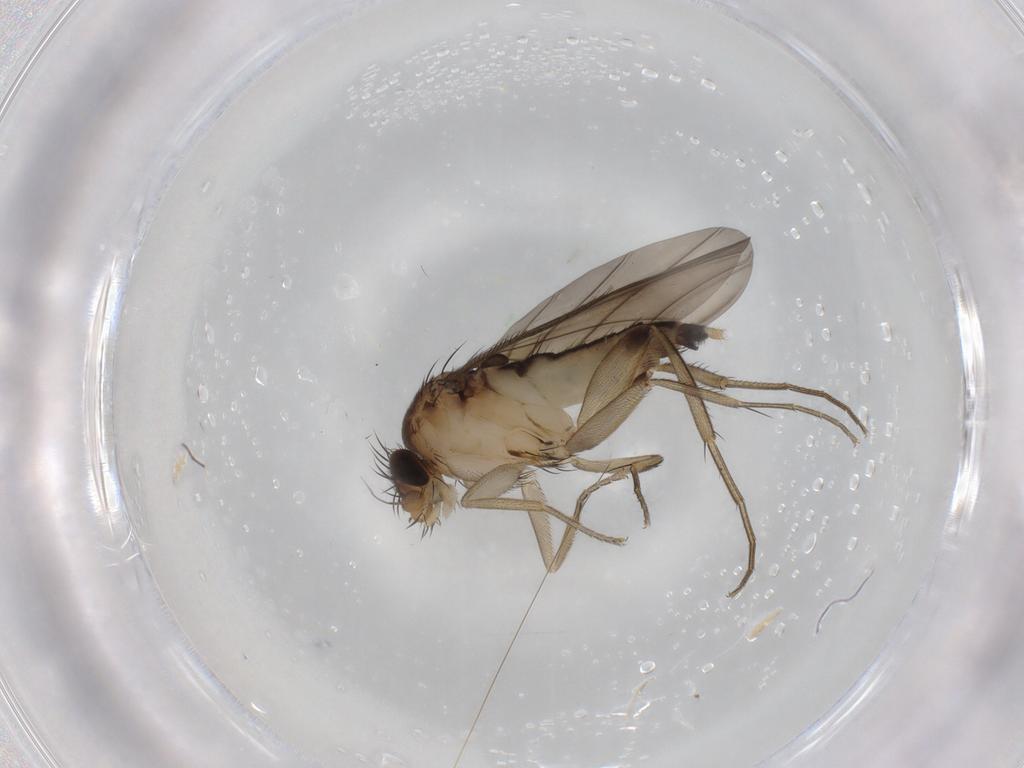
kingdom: Animalia
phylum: Arthropoda
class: Insecta
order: Diptera
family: Phoridae
